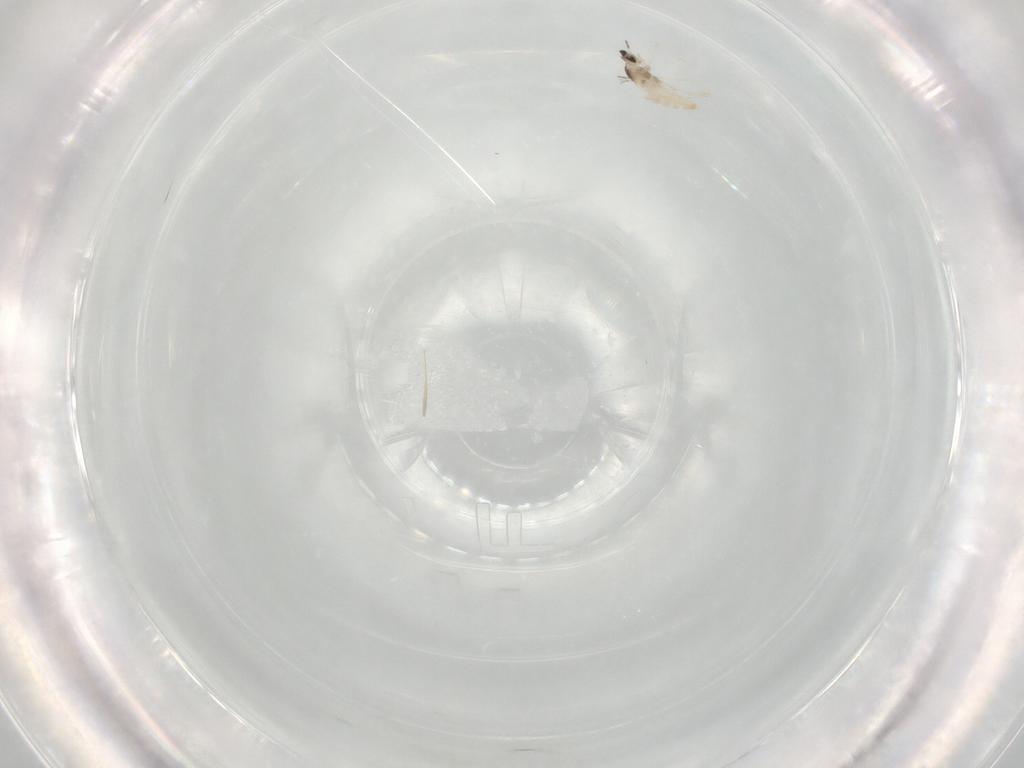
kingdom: Animalia
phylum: Arthropoda
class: Insecta
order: Diptera
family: Cecidomyiidae
